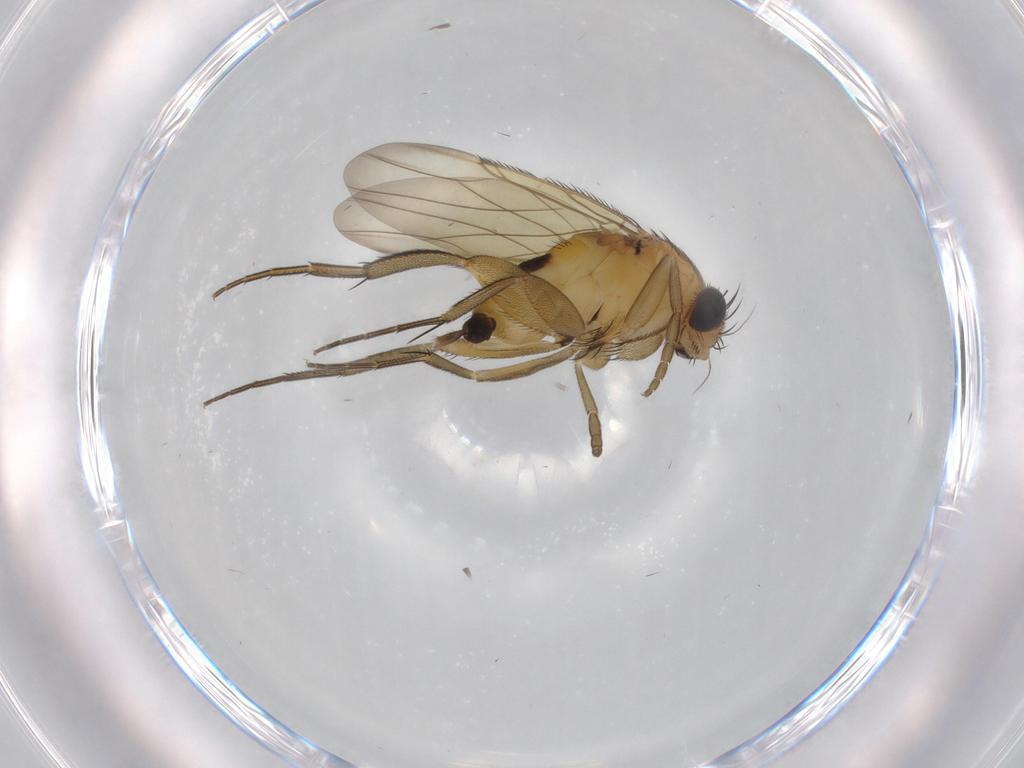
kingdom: Animalia
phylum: Arthropoda
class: Insecta
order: Diptera
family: Phoridae
